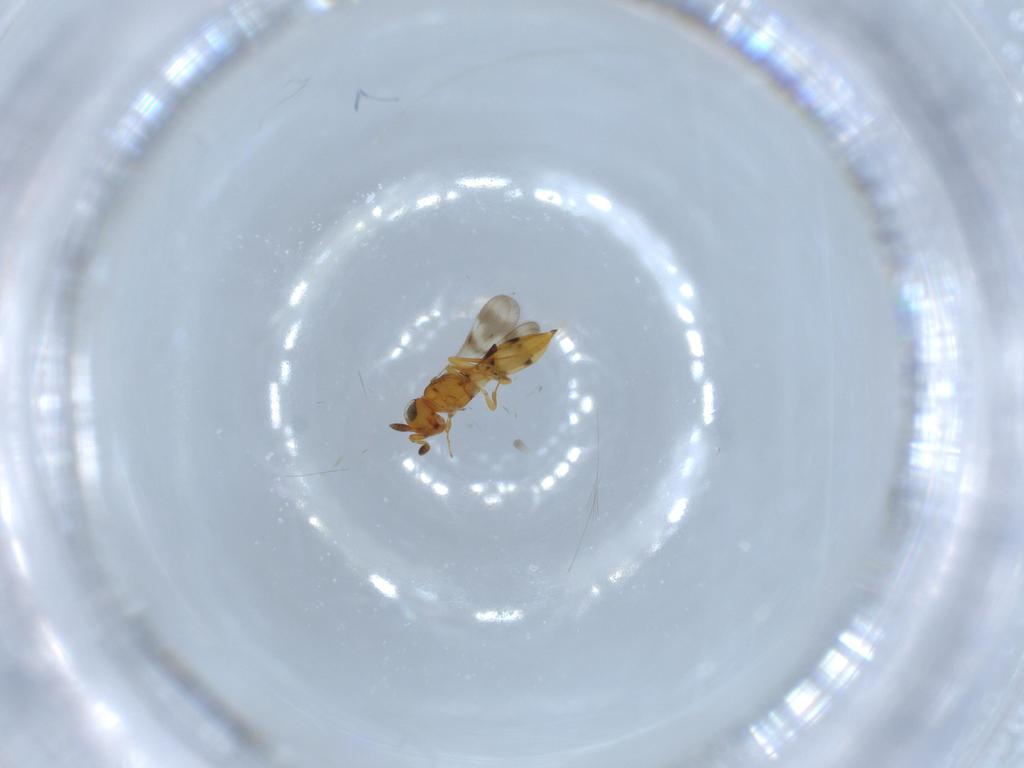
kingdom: Animalia
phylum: Arthropoda
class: Insecta
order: Hymenoptera
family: Scelionidae
